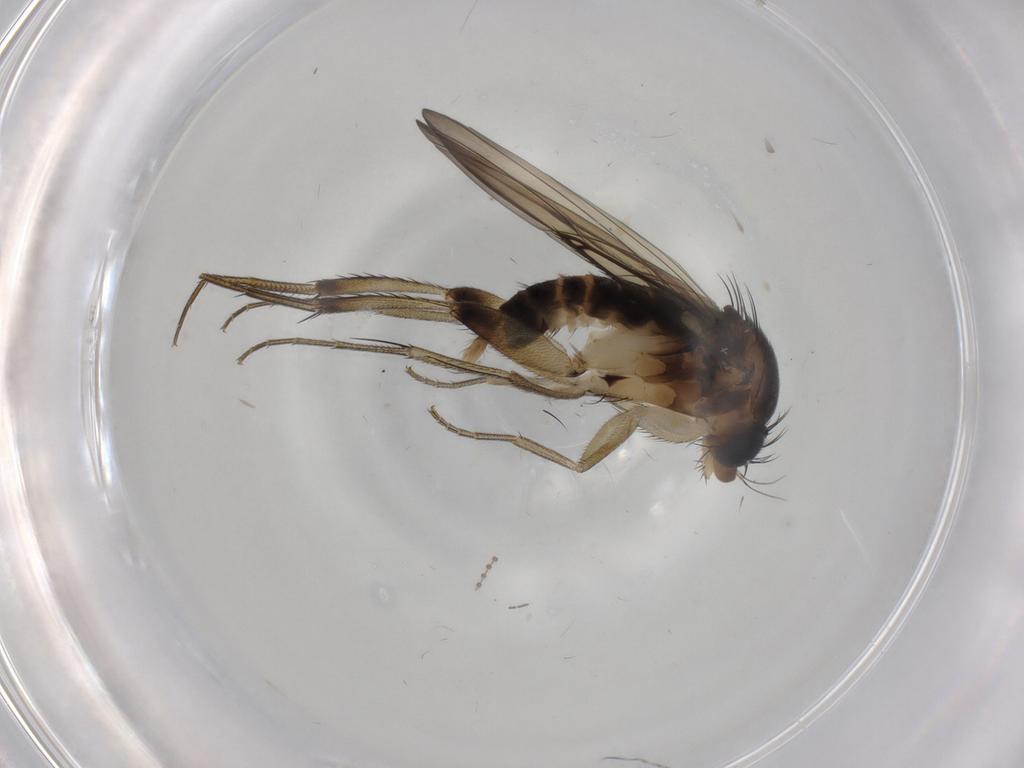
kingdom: Animalia
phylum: Arthropoda
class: Insecta
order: Diptera
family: Phoridae
